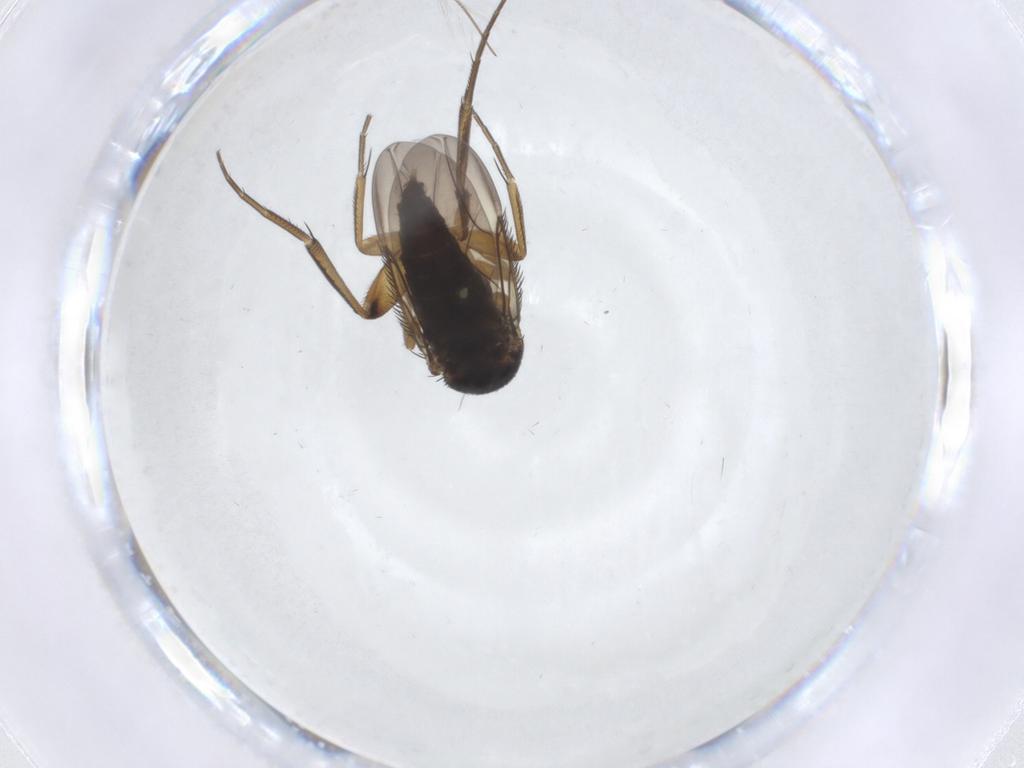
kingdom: Animalia
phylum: Arthropoda
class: Insecta
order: Diptera
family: Phoridae
